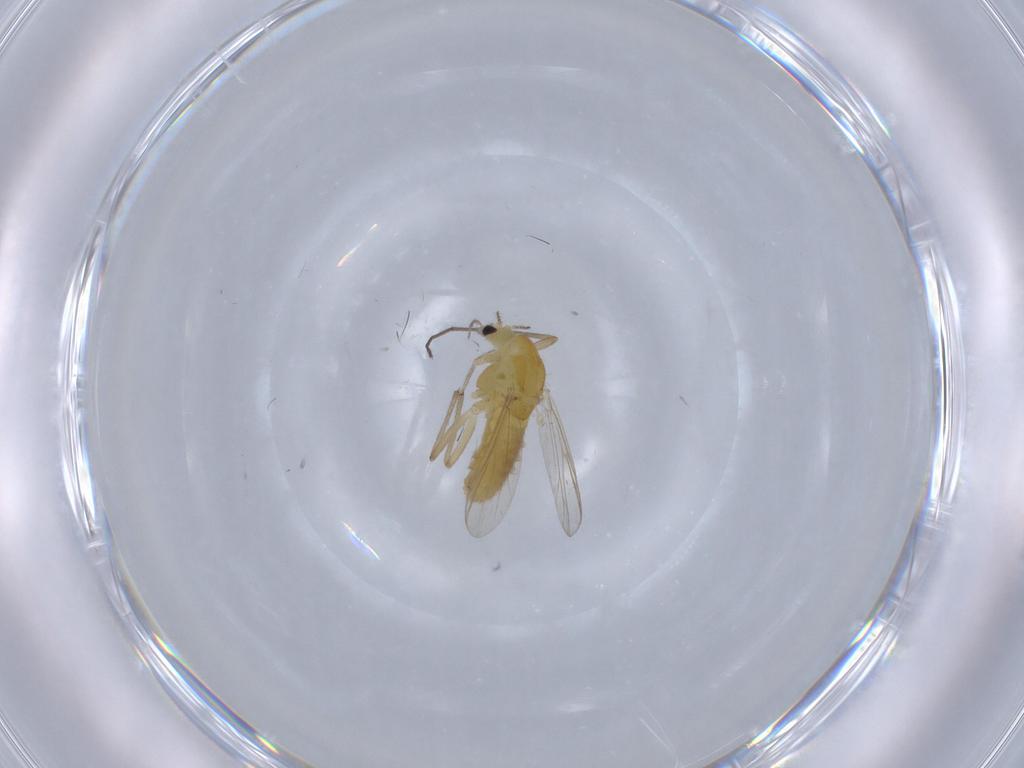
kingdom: Animalia
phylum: Arthropoda
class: Insecta
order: Diptera
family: Chironomidae
